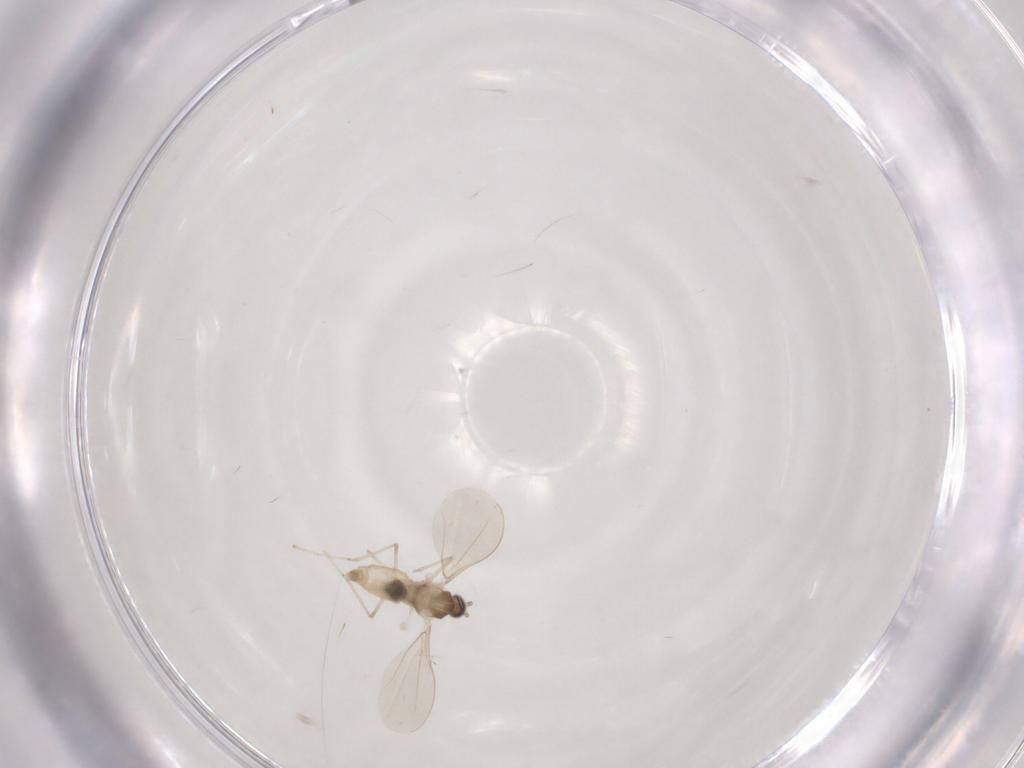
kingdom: Animalia
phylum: Arthropoda
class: Insecta
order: Diptera
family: Cecidomyiidae
